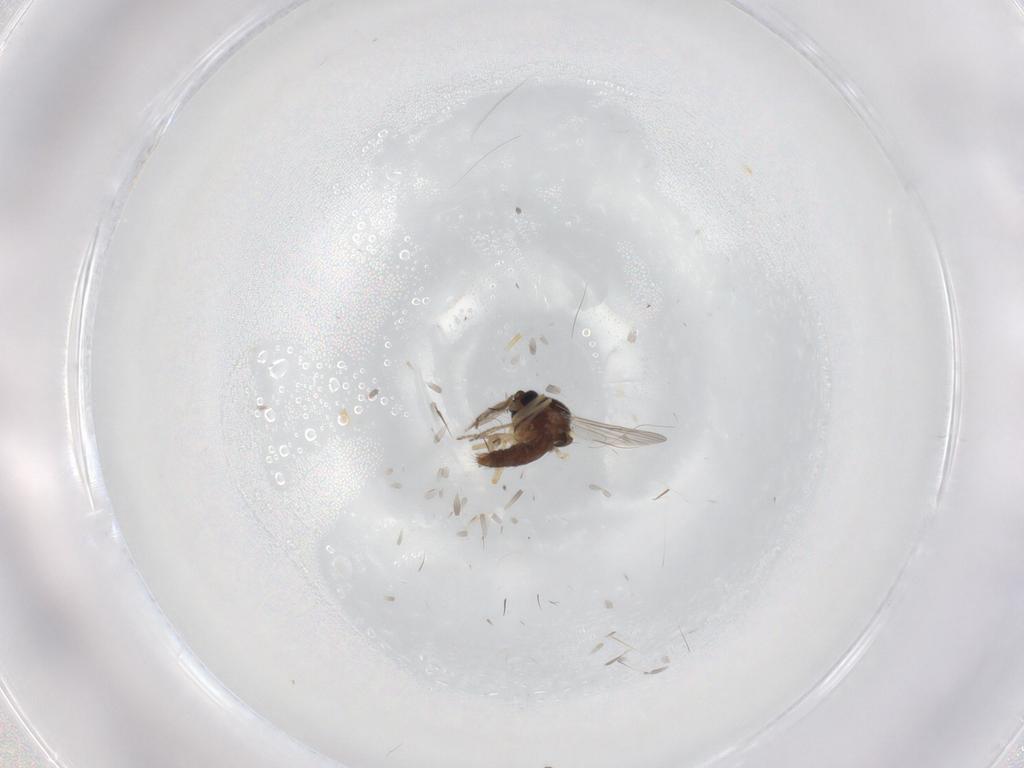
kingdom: Animalia
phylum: Arthropoda
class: Insecta
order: Diptera
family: Ceratopogonidae
